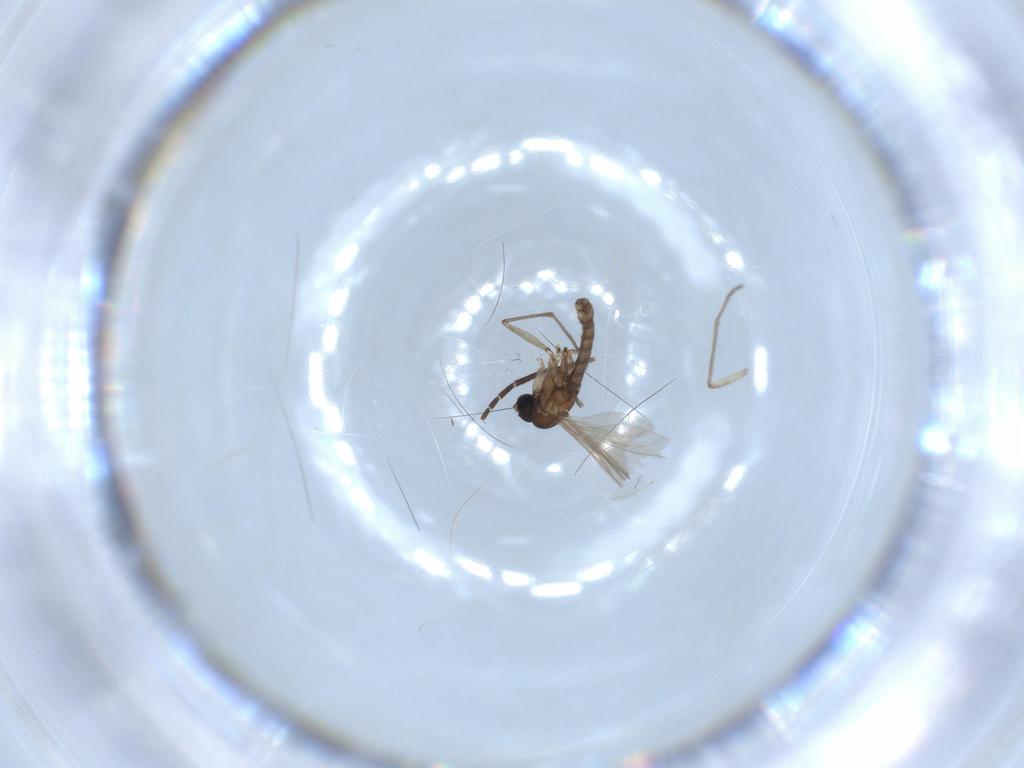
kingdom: Animalia
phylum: Arthropoda
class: Insecta
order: Diptera
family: Sciaridae
